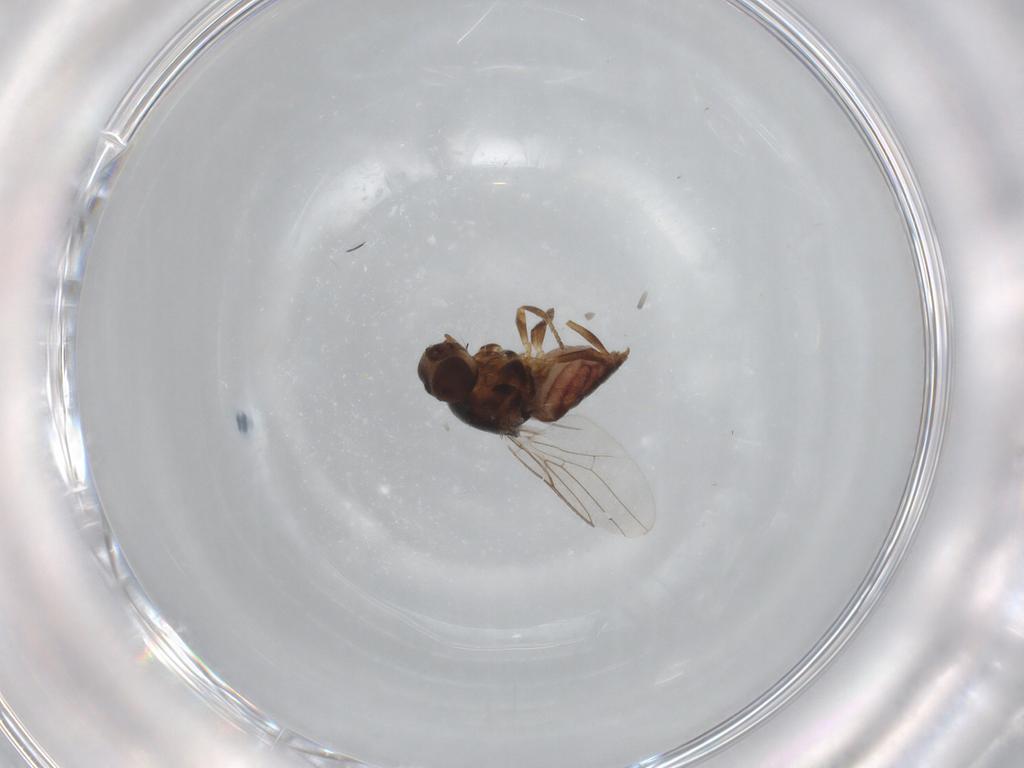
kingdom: Animalia
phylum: Arthropoda
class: Insecta
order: Diptera
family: Chloropidae
